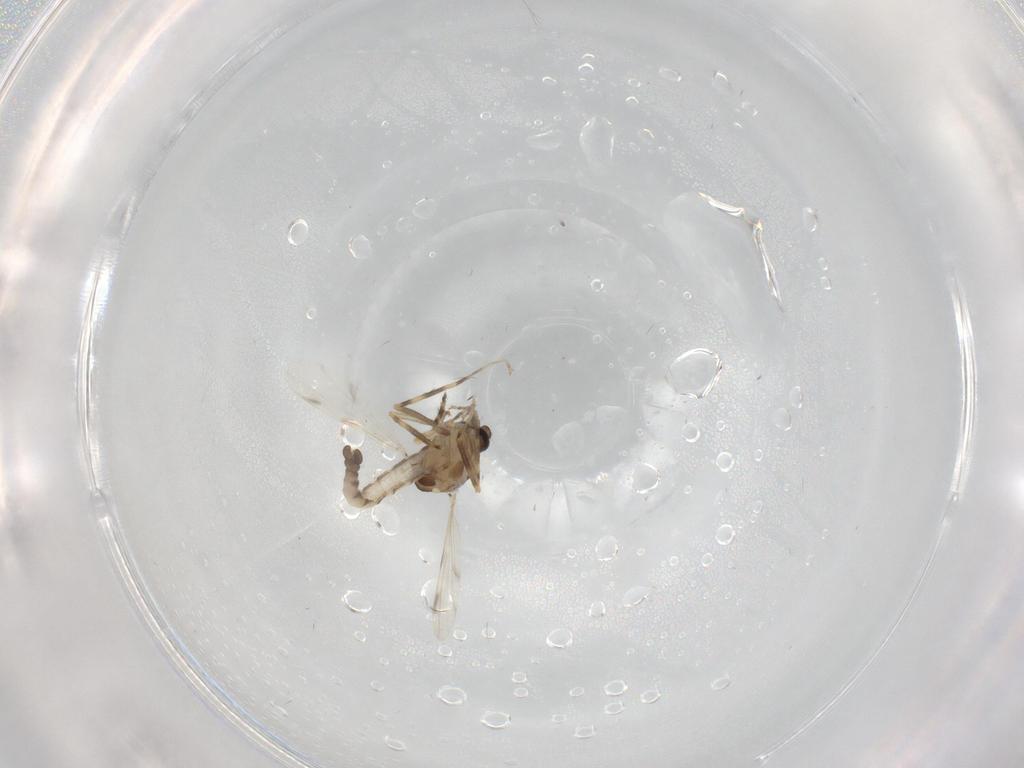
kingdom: Animalia
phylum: Arthropoda
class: Insecta
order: Diptera
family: Ceratopogonidae
